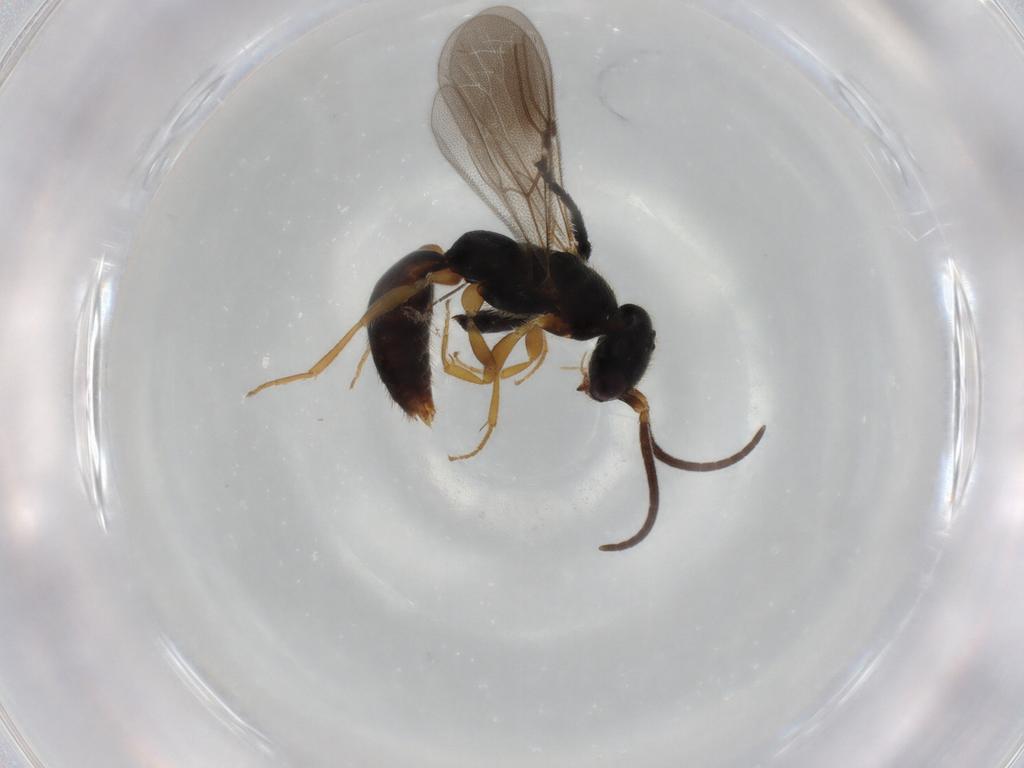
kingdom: Animalia
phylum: Arthropoda
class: Insecta
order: Hymenoptera
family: Bethylidae
